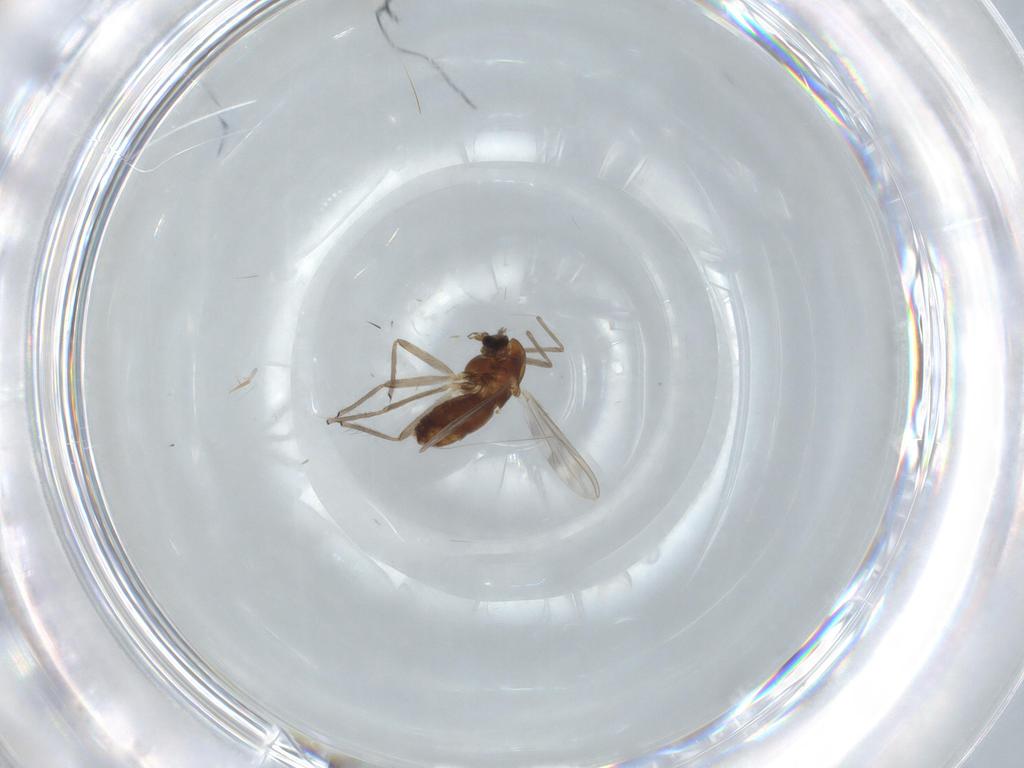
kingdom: Animalia
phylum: Arthropoda
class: Insecta
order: Diptera
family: Chironomidae
